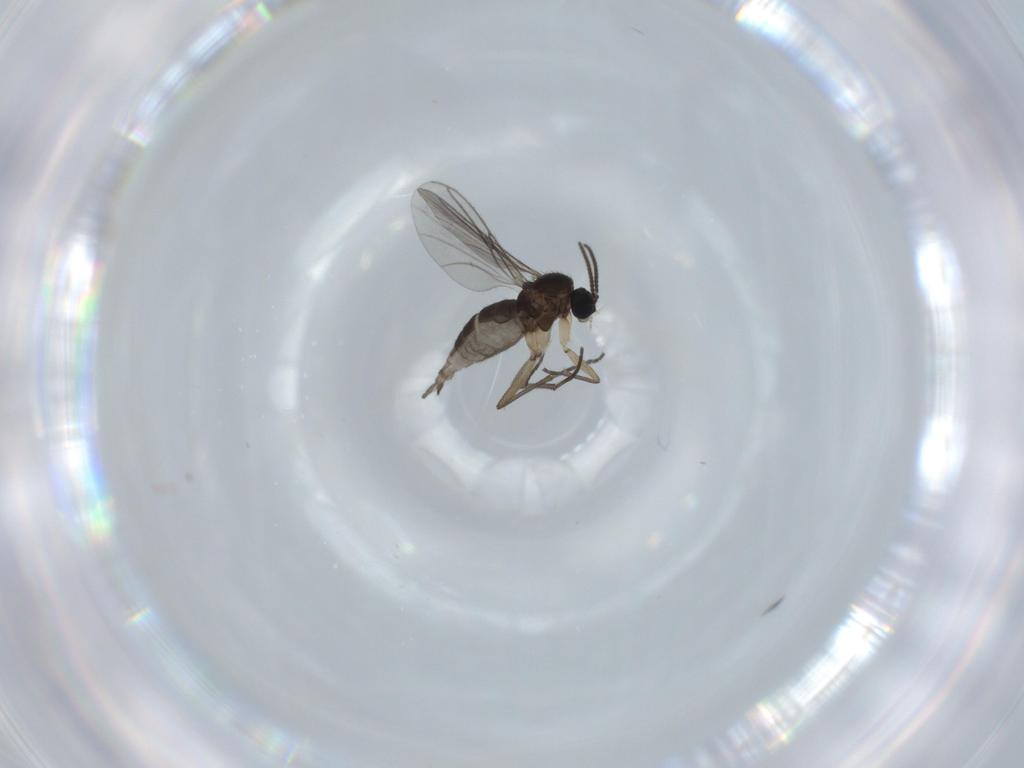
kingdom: Animalia
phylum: Arthropoda
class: Insecta
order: Diptera
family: Sciaridae
